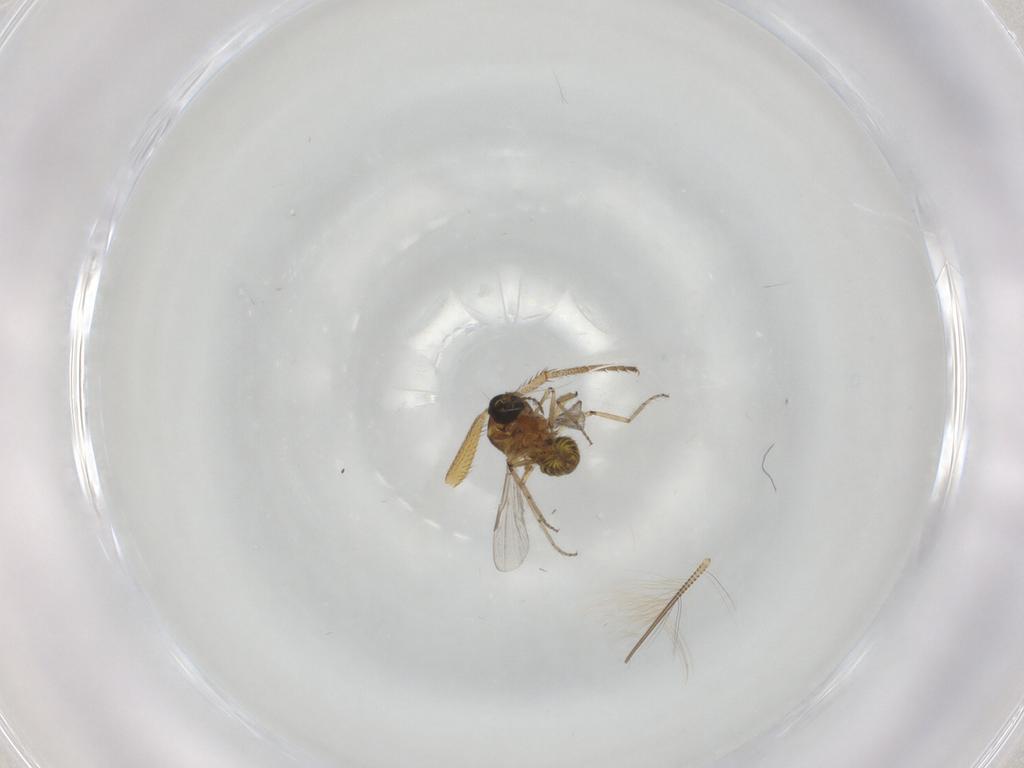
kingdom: Animalia
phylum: Arthropoda
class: Insecta
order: Diptera
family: Ceratopogonidae
